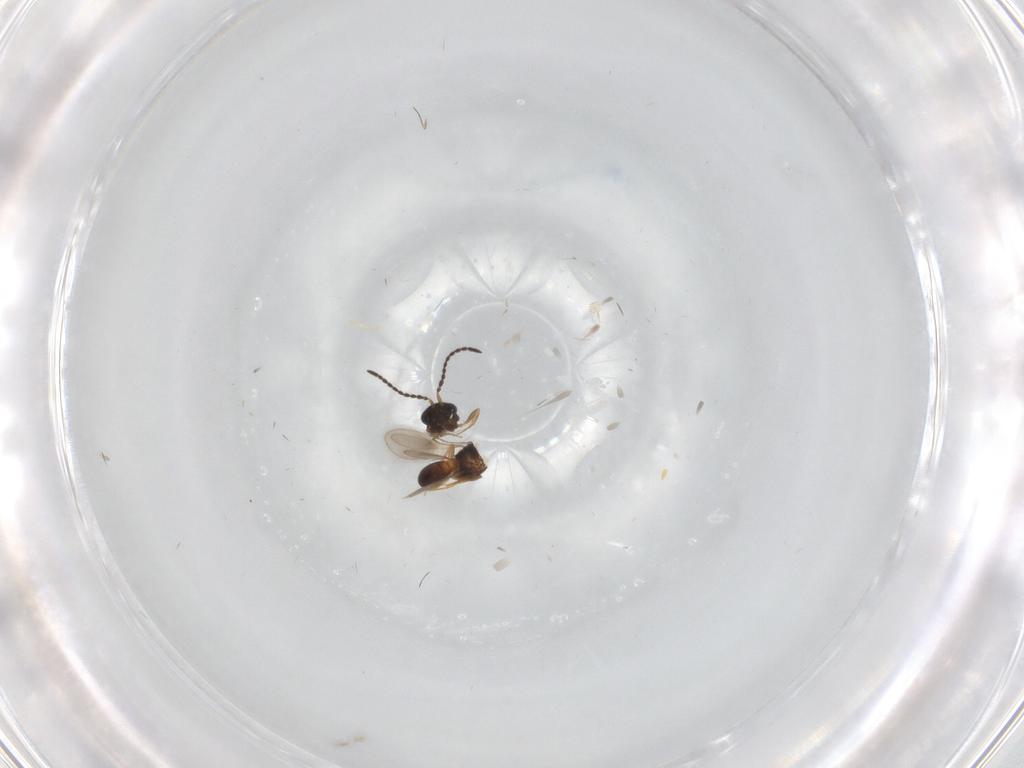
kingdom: Animalia
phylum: Arthropoda
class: Insecta
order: Hymenoptera
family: Scelionidae
